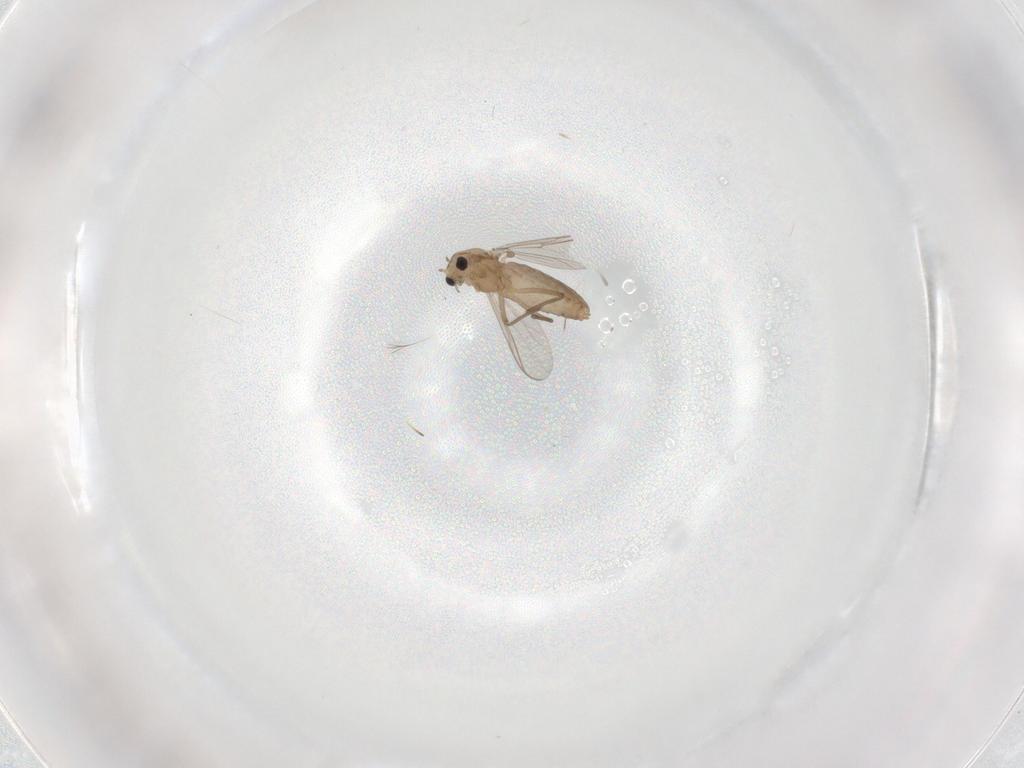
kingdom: Animalia
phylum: Arthropoda
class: Insecta
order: Diptera
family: Chironomidae
